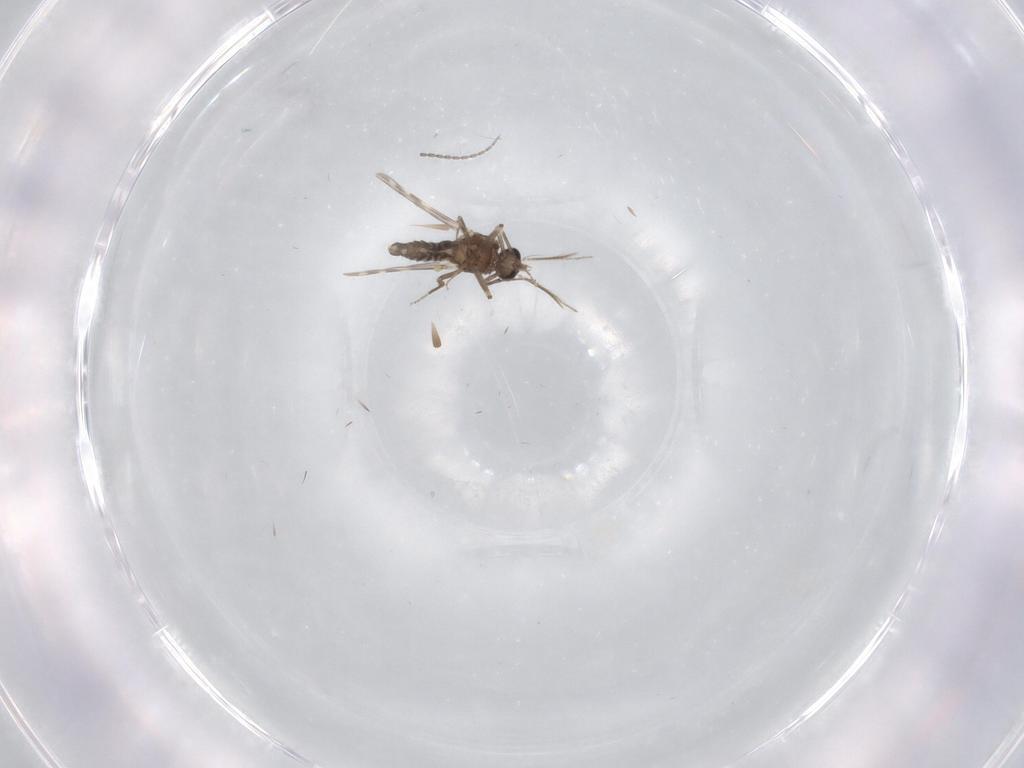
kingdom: Animalia
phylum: Arthropoda
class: Insecta
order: Diptera
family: Ceratopogonidae
